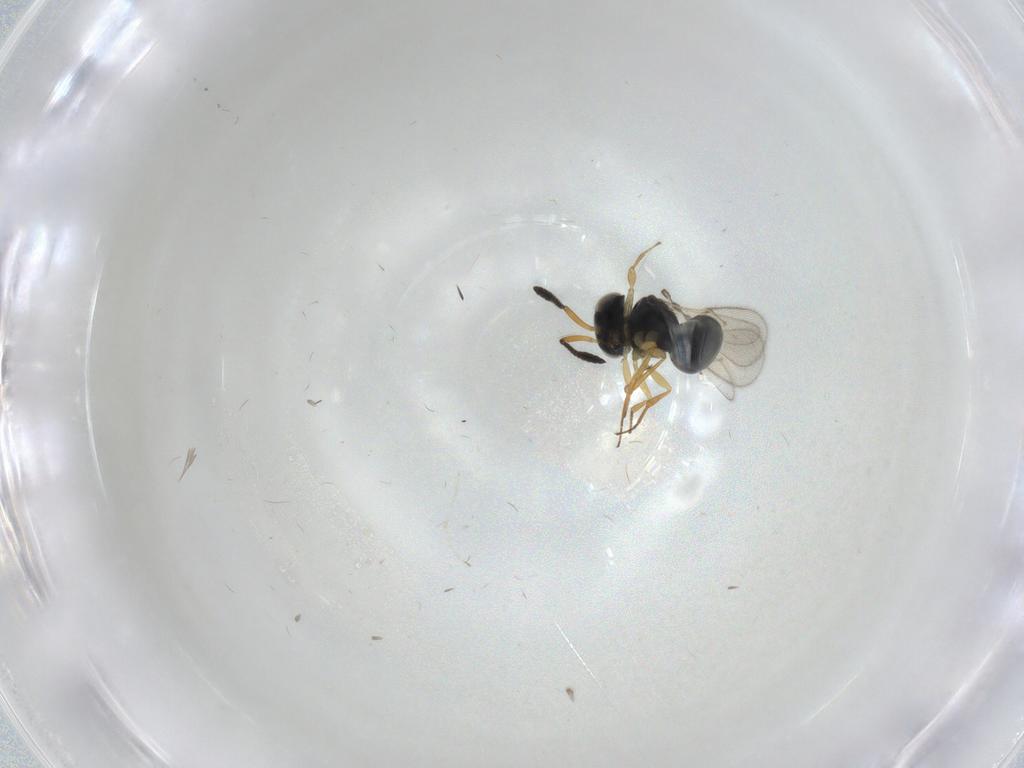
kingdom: Animalia
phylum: Arthropoda
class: Insecta
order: Hymenoptera
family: Scelionidae
